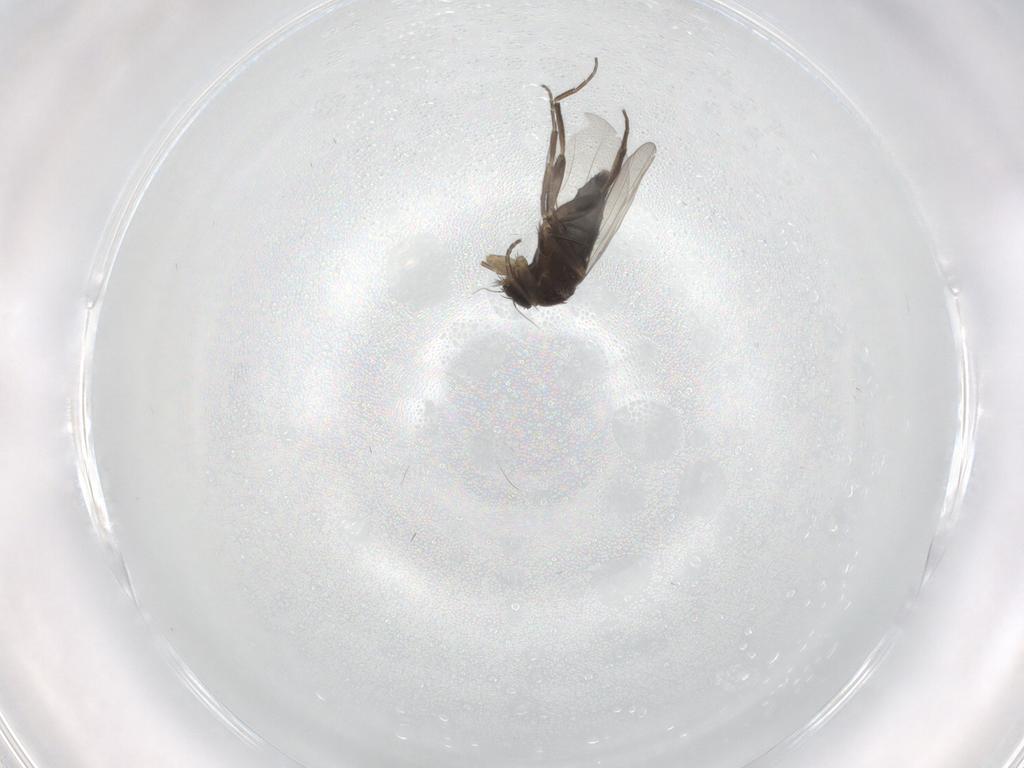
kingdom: Animalia
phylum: Arthropoda
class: Insecta
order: Diptera
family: Phoridae
